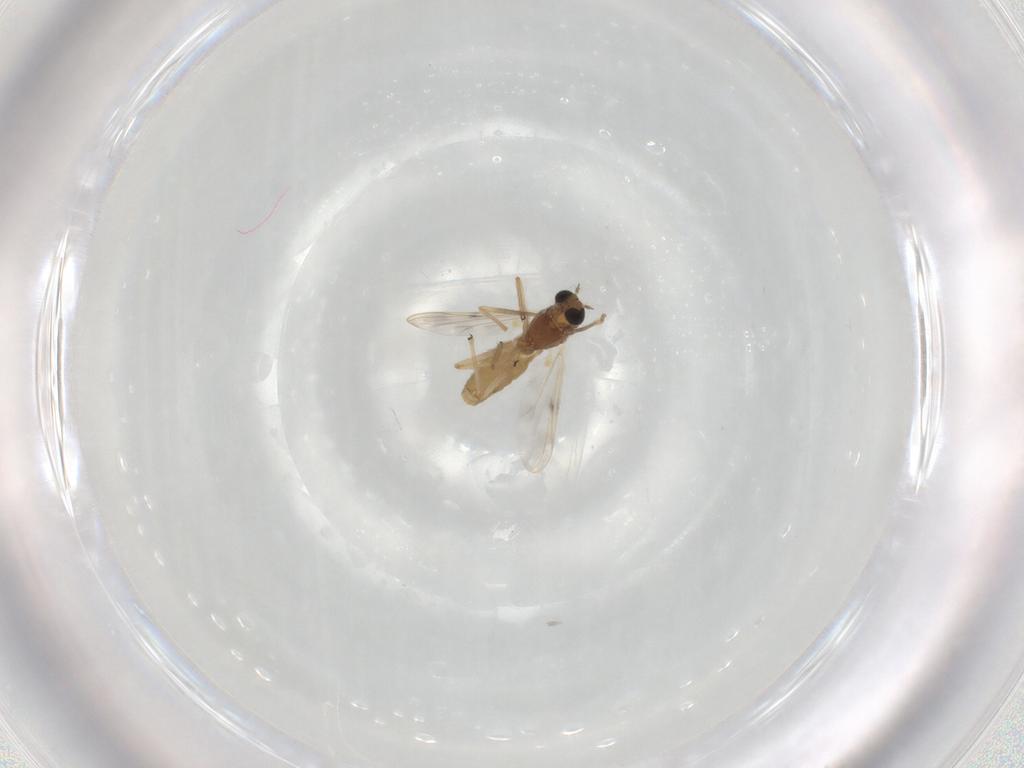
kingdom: Animalia
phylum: Arthropoda
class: Insecta
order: Diptera
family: Chironomidae
